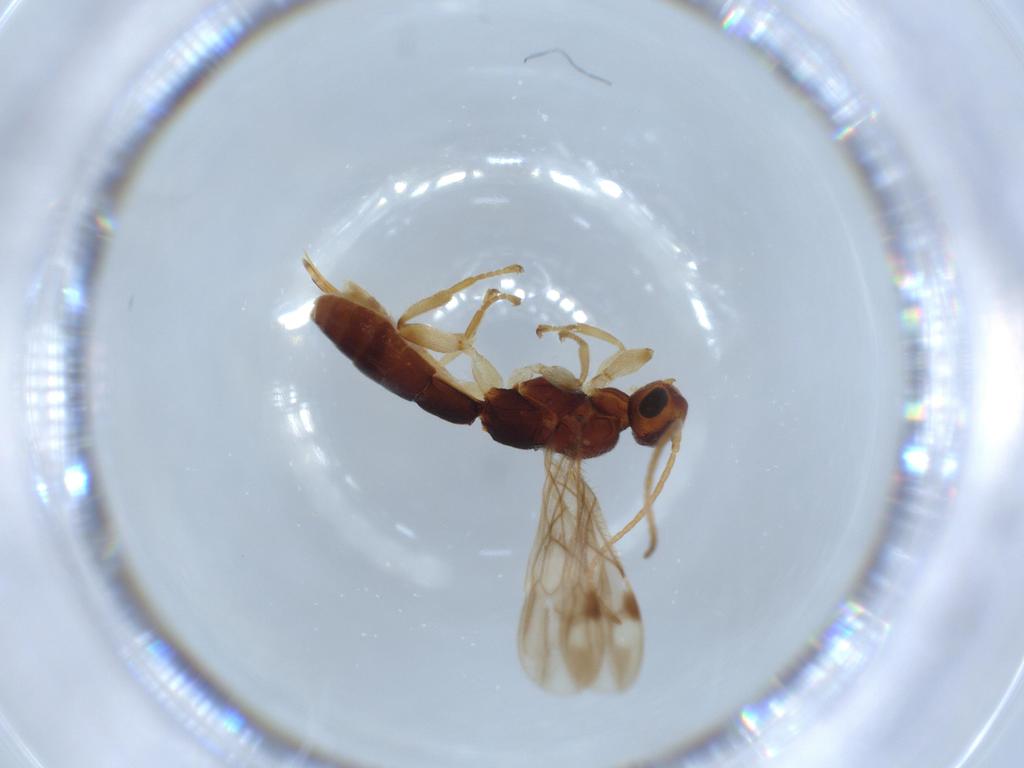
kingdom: Animalia
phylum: Arthropoda
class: Insecta
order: Hymenoptera
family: Braconidae
